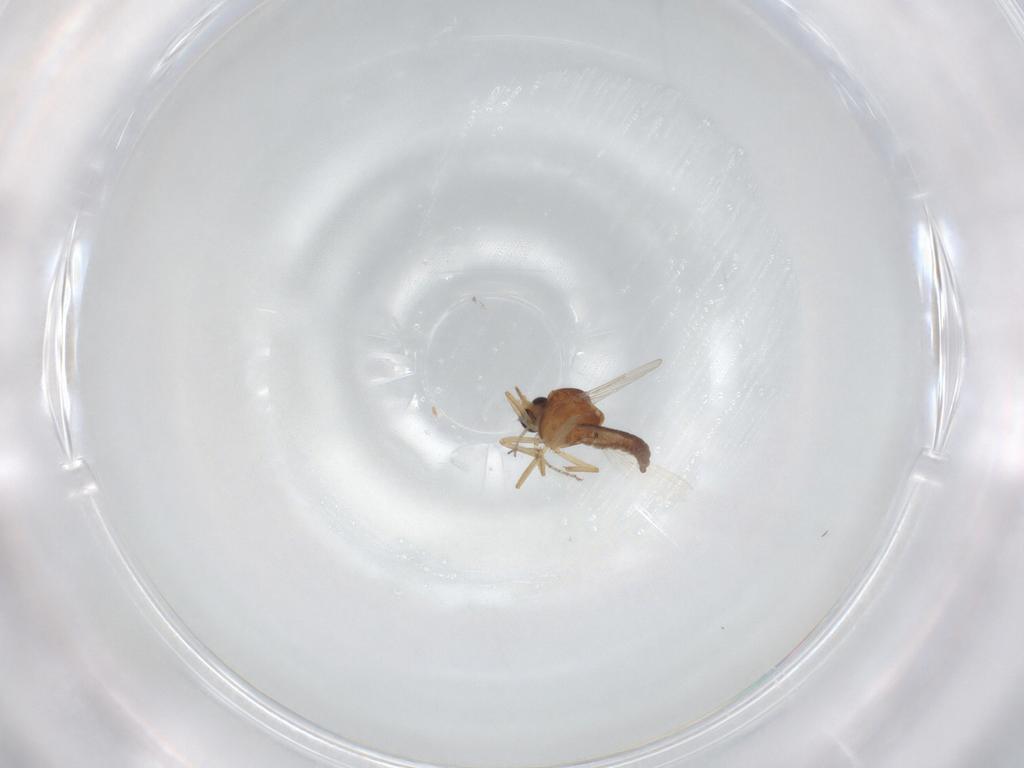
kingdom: Animalia
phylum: Arthropoda
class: Insecta
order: Diptera
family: Ceratopogonidae
